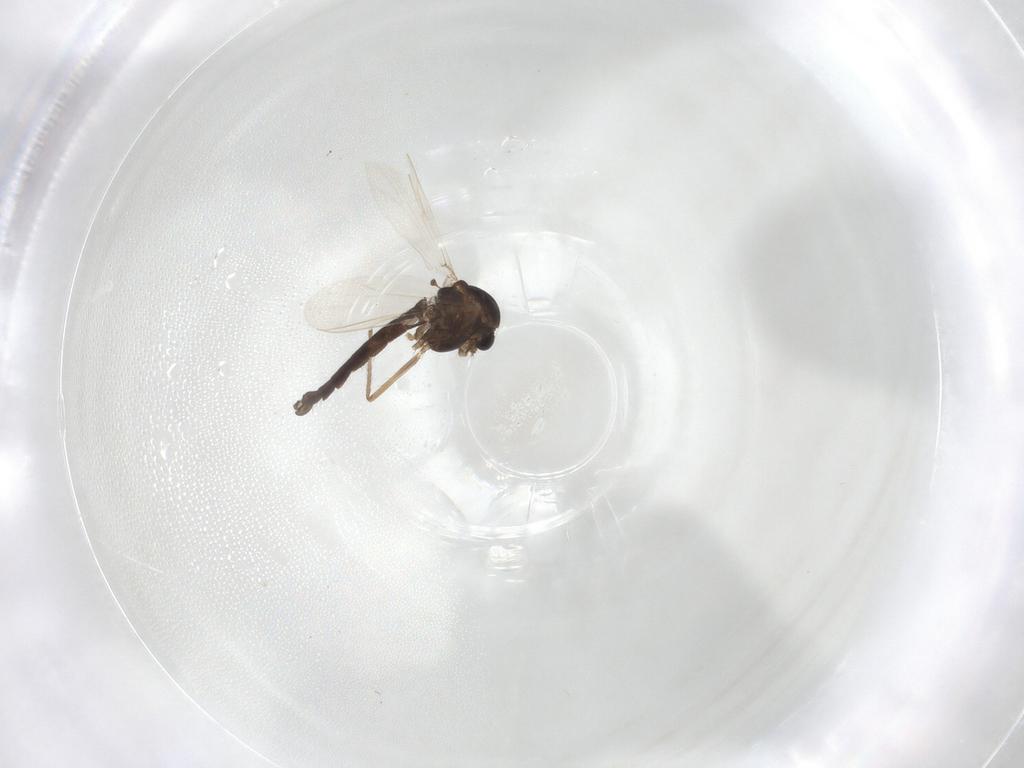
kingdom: Animalia
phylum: Arthropoda
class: Insecta
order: Diptera
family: Chironomidae
